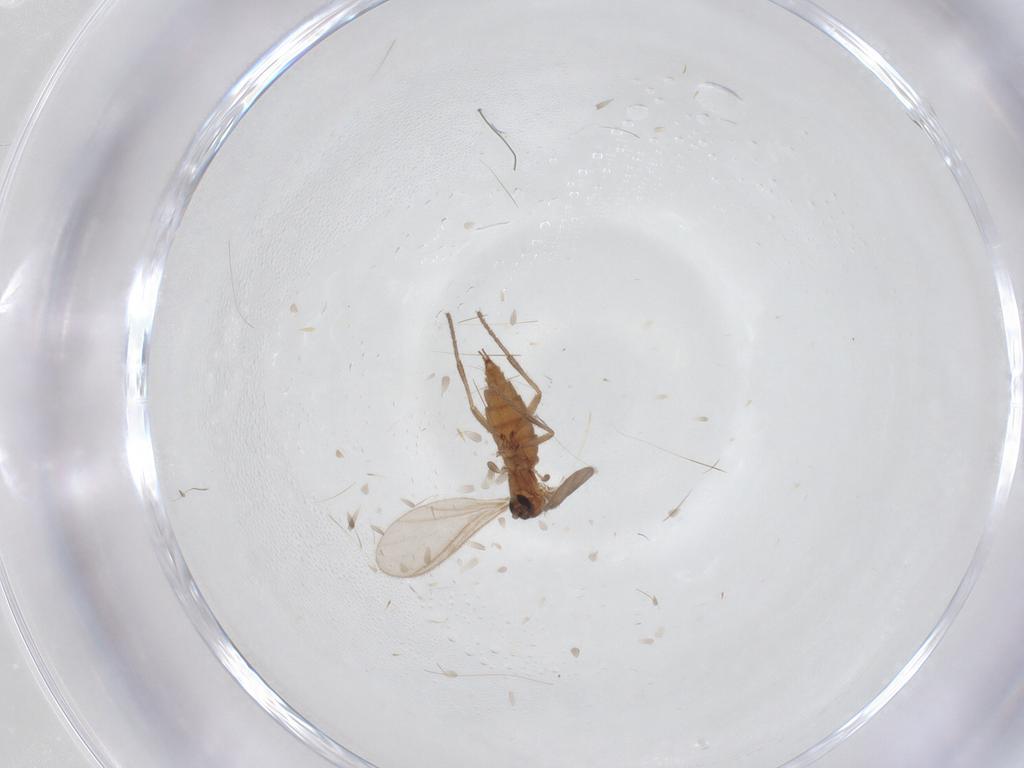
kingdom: Animalia
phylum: Arthropoda
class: Insecta
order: Diptera
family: Sciaridae
